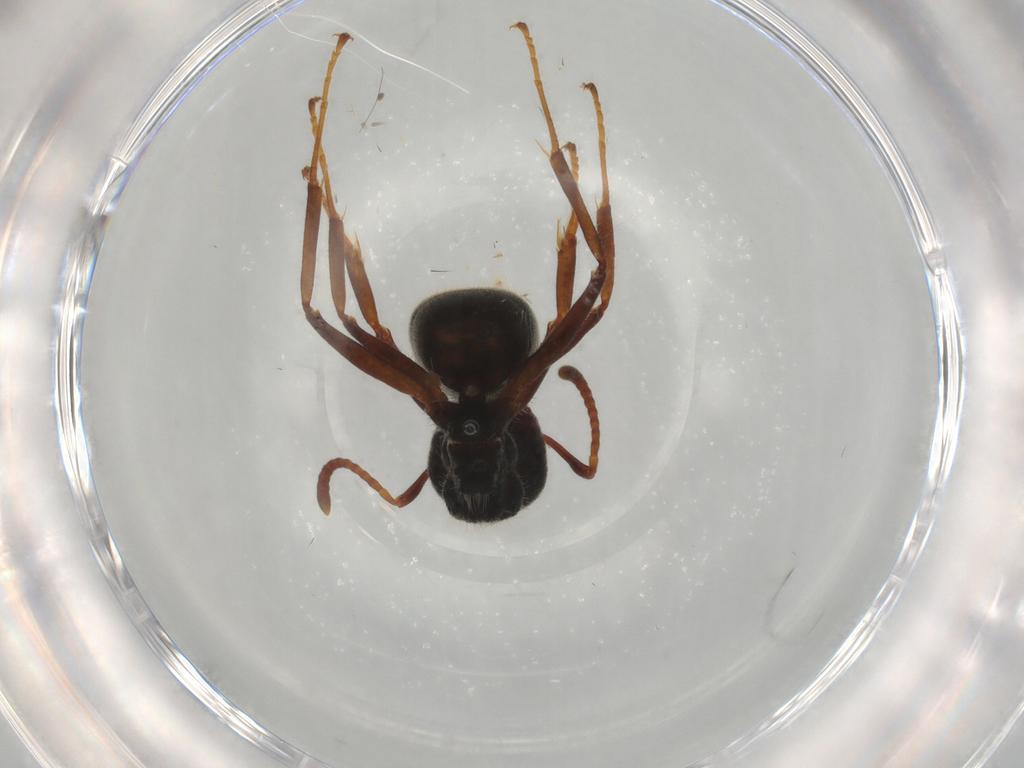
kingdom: Animalia
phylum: Arthropoda
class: Insecta
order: Hymenoptera
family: Formicidae
